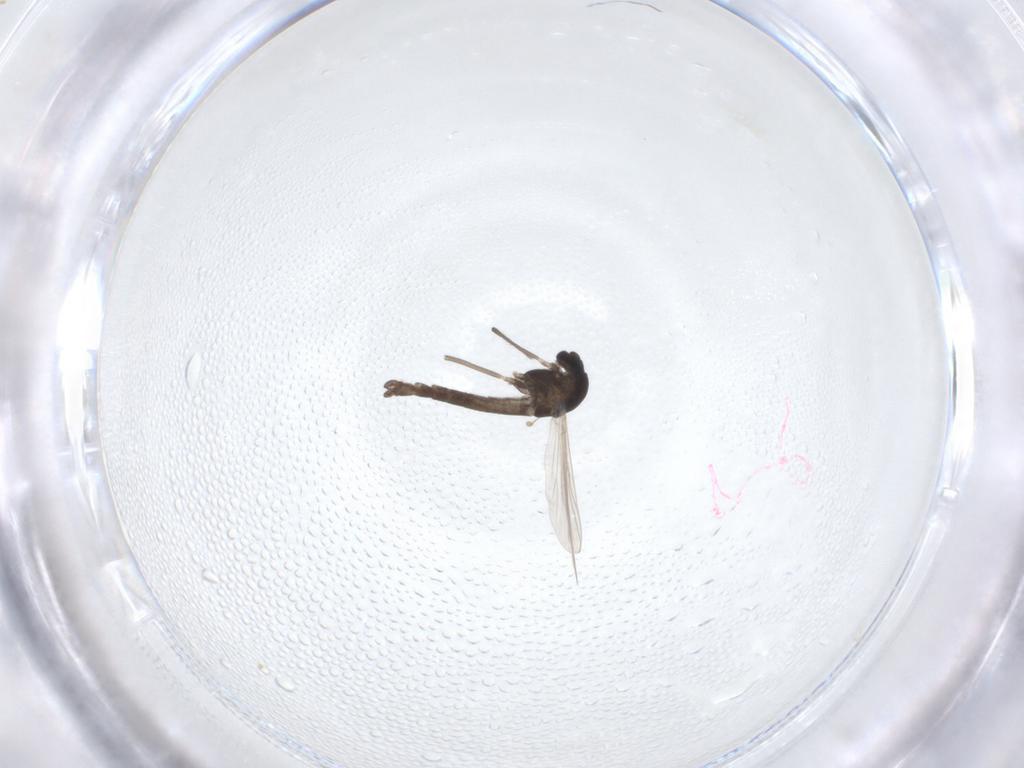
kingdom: Animalia
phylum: Arthropoda
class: Insecta
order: Diptera
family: Chironomidae
